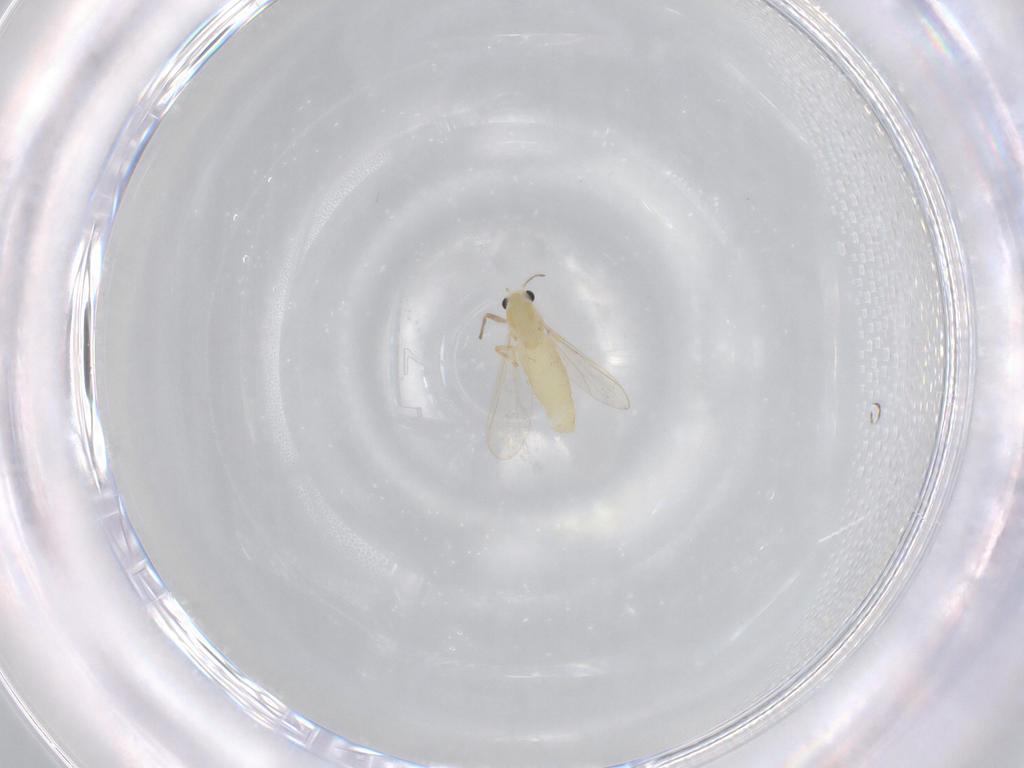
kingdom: Animalia
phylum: Arthropoda
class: Insecta
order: Diptera
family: Chironomidae
